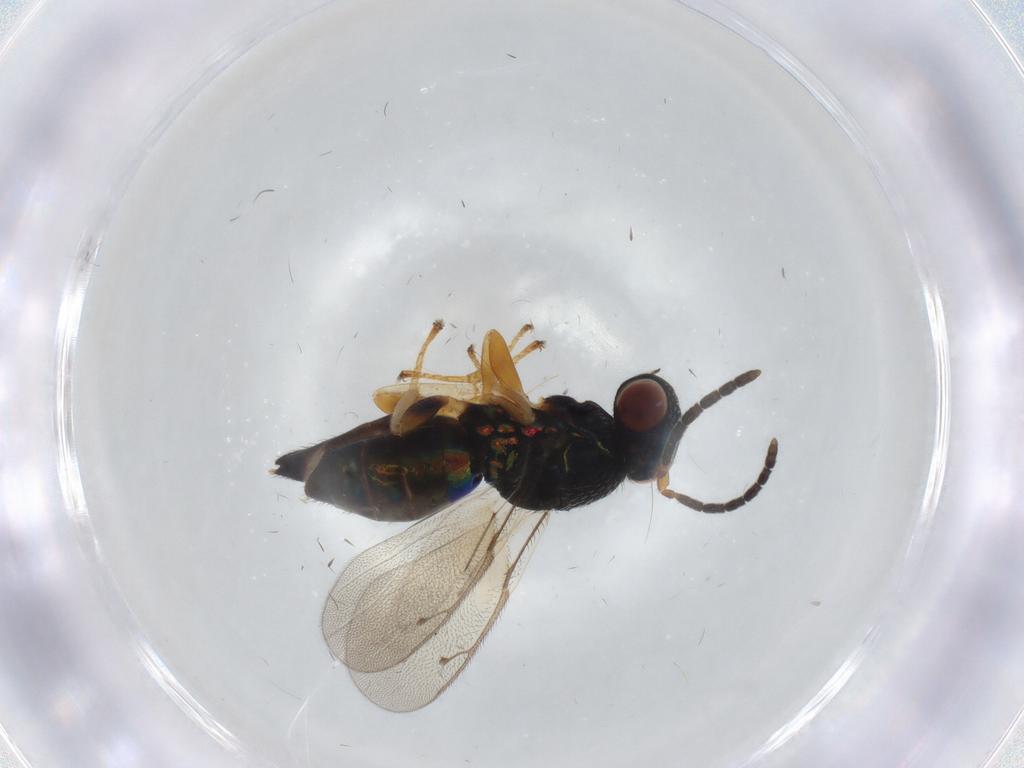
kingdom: Animalia
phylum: Arthropoda
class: Insecta
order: Hymenoptera
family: Pteromalidae
